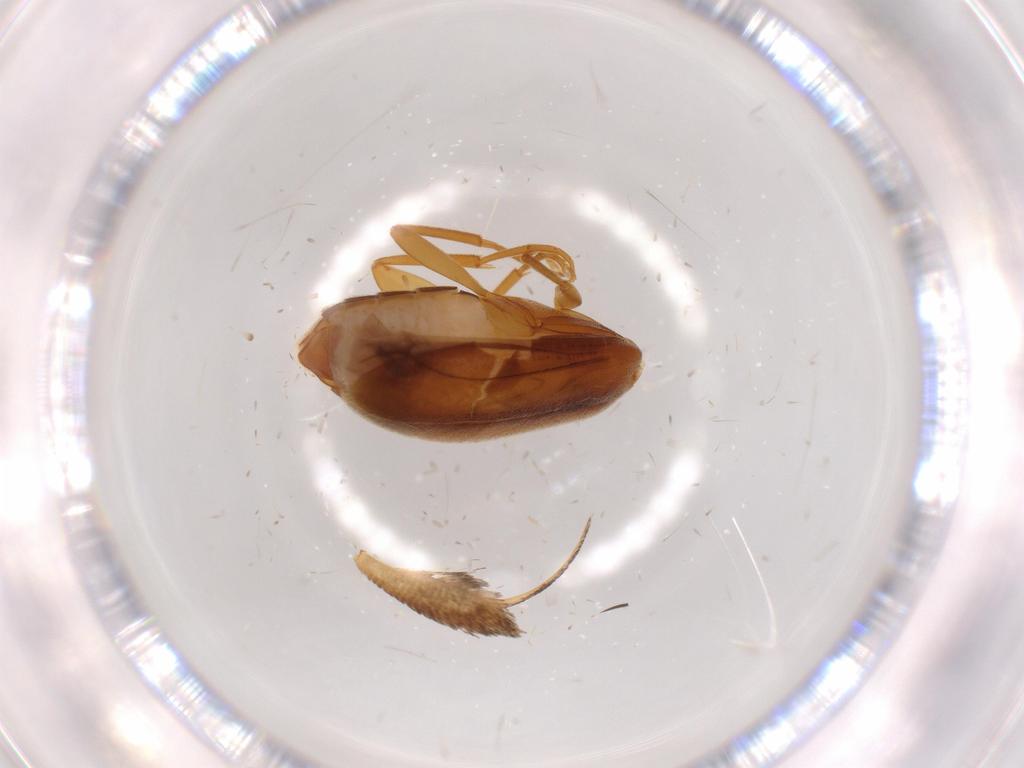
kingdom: Animalia
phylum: Arthropoda
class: Insecta
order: Coleoptera
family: Scraptiidae
